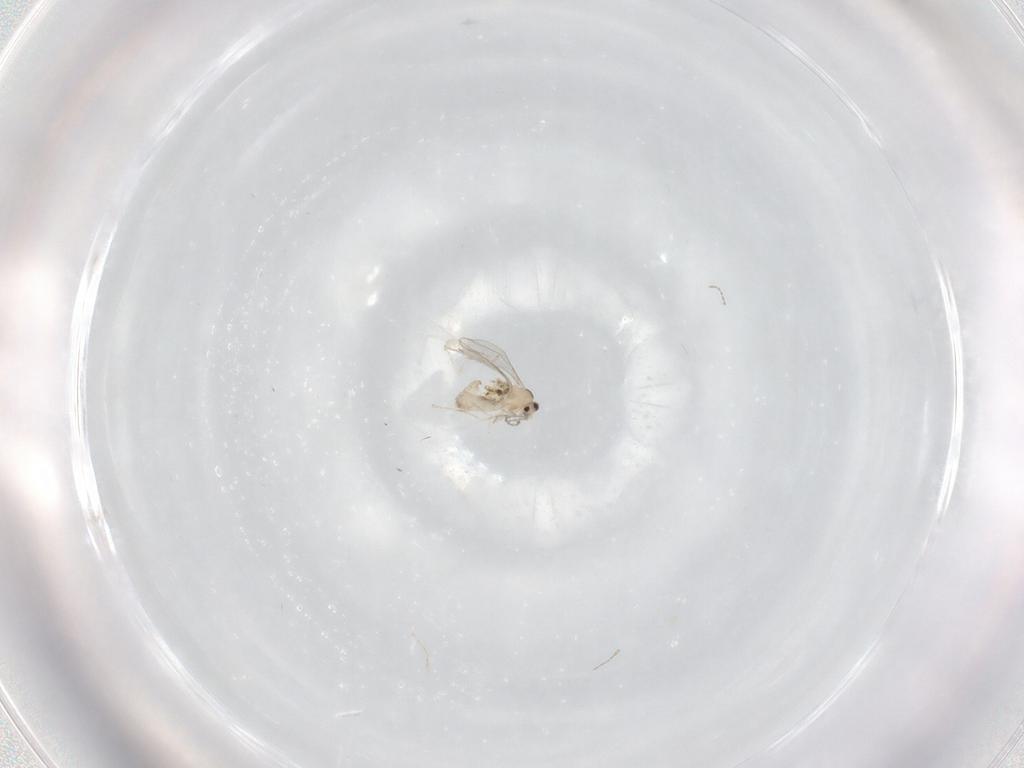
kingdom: Animalia
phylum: Arthropoda
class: Insecta
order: Diptera
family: Cecidomyiidae
